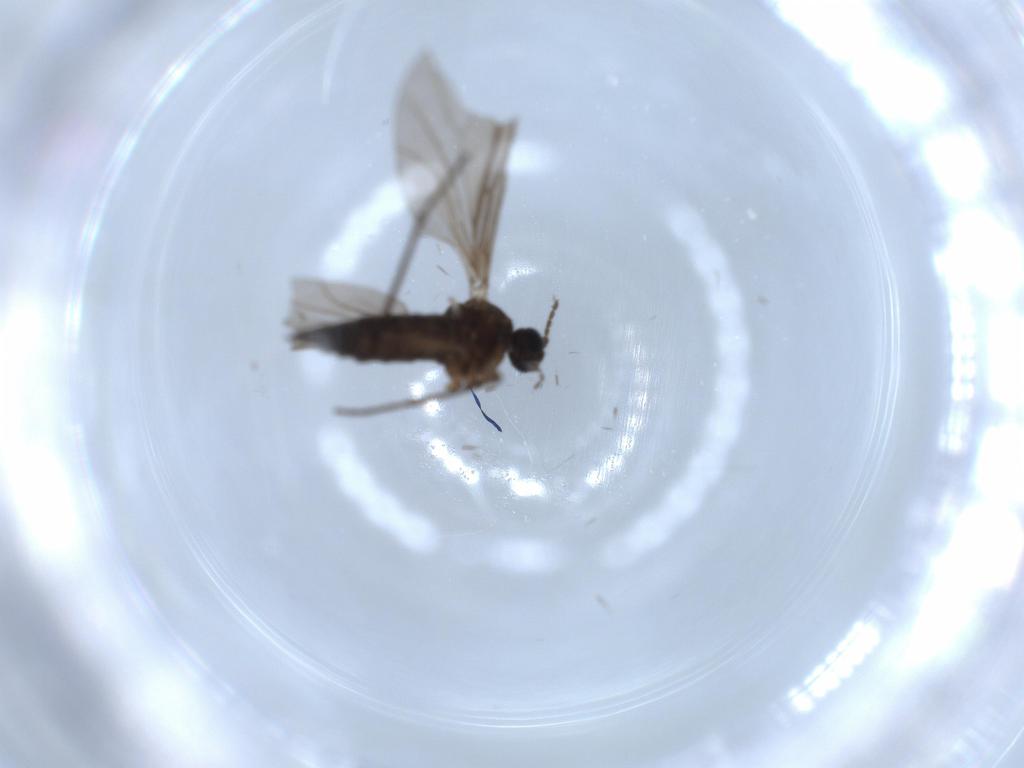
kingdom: Animalia
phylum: Arthropoda
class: Insecta
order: Diptera
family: Sciaridae
